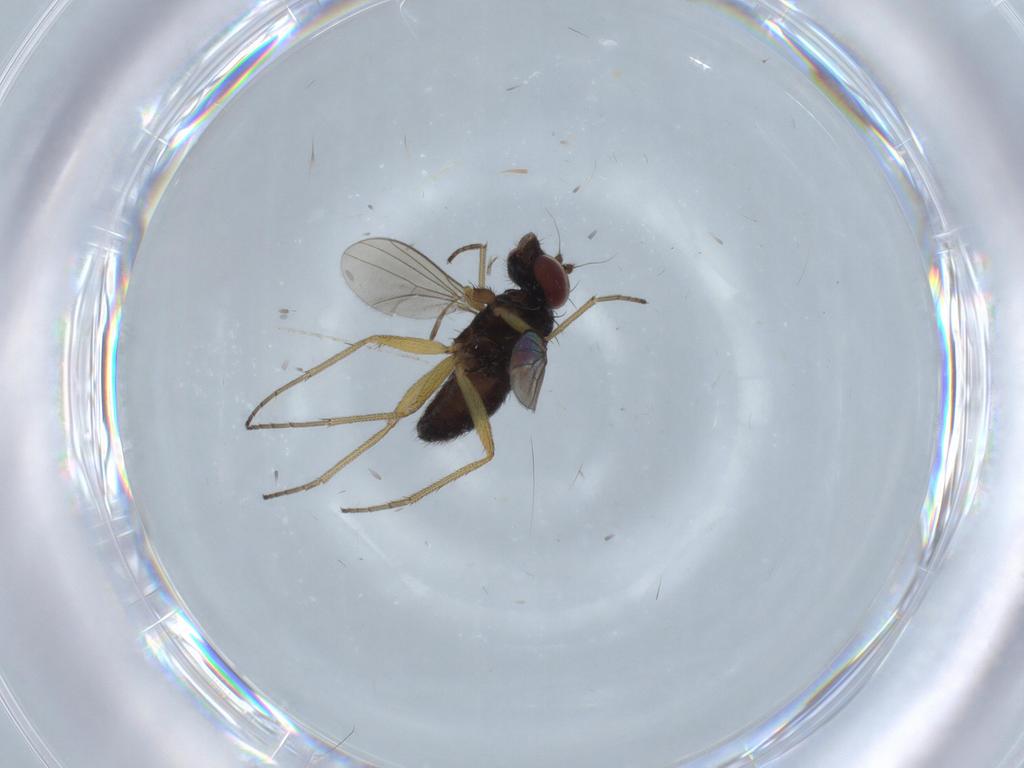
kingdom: Animalia
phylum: Arthropoda
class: Insecta
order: Diptera
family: Dolichopodidae
